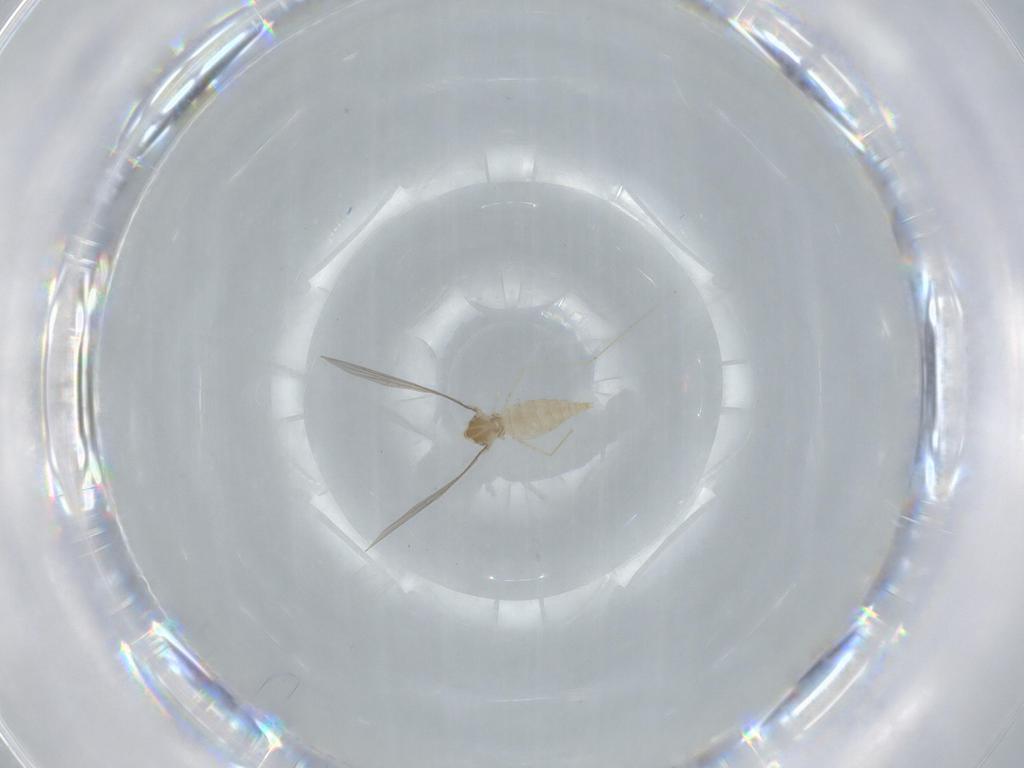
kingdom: Animalia
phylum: Arthropoda
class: Insecta
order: Diptera
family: Cecidomyiidae
